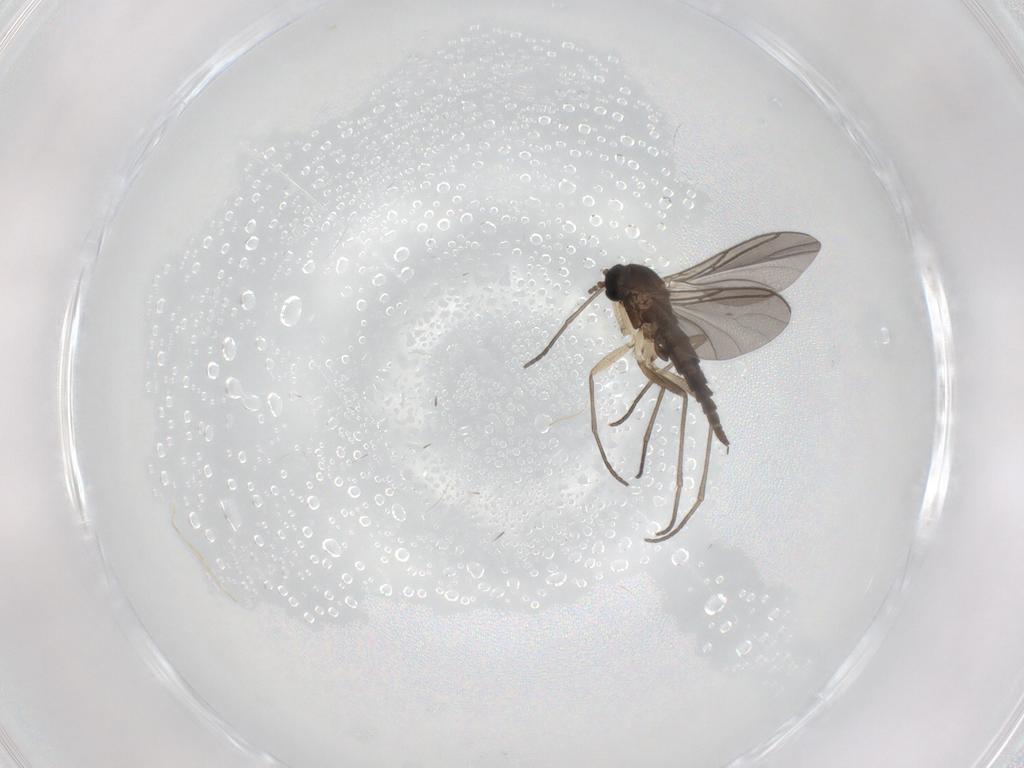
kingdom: Animalia
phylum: Arthropoda
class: Insecta
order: Diptera
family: Sciaridae
